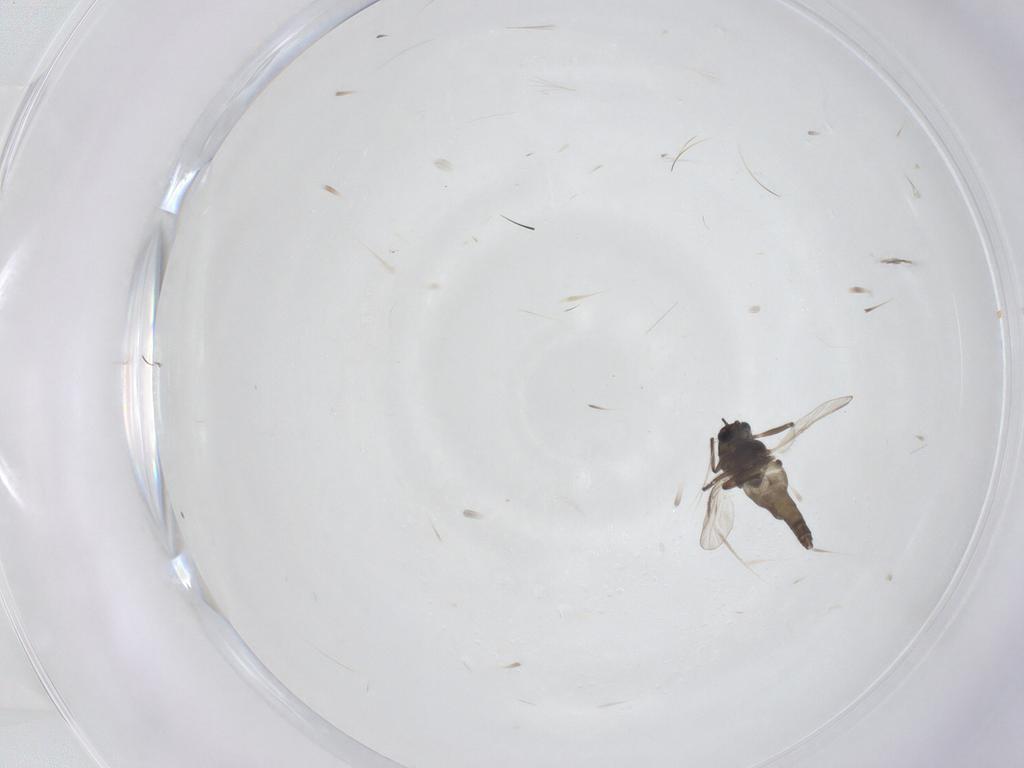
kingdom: Animalia
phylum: Arthropoda
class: Insecta
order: Diptera
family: Chironomidae
